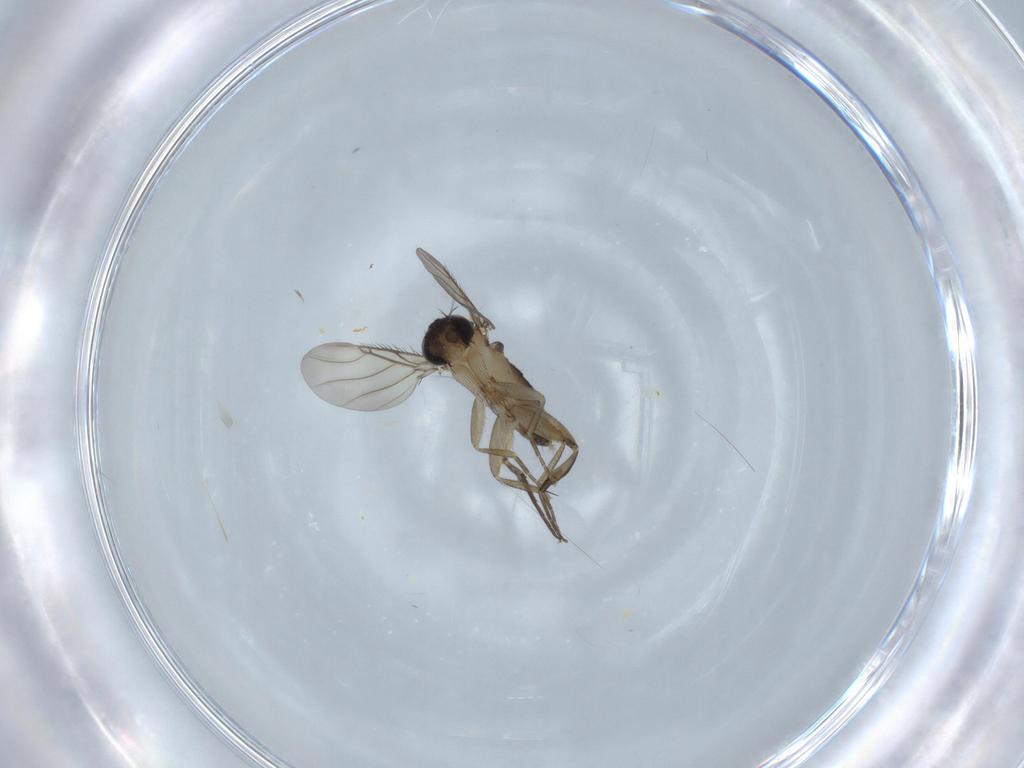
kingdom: Animalia
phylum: Arthropoda
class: Insecta
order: Diptera
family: Phoridae
